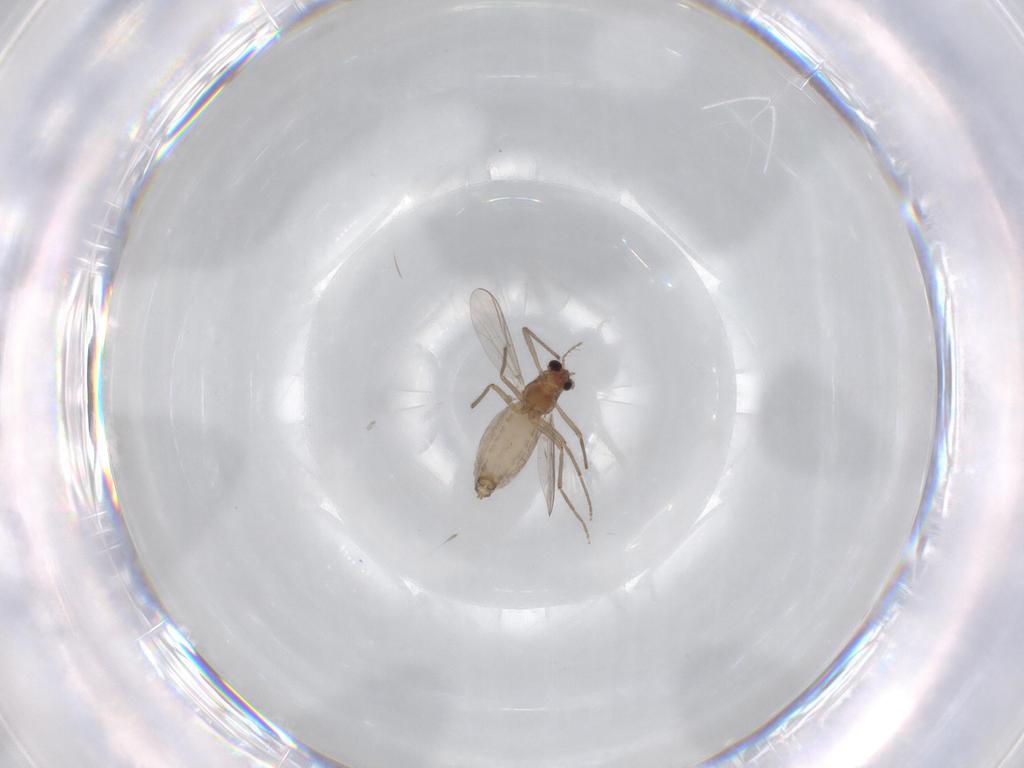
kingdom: Animalia
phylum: Arthropoda
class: Insecta
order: Diptera
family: Chironomidae
